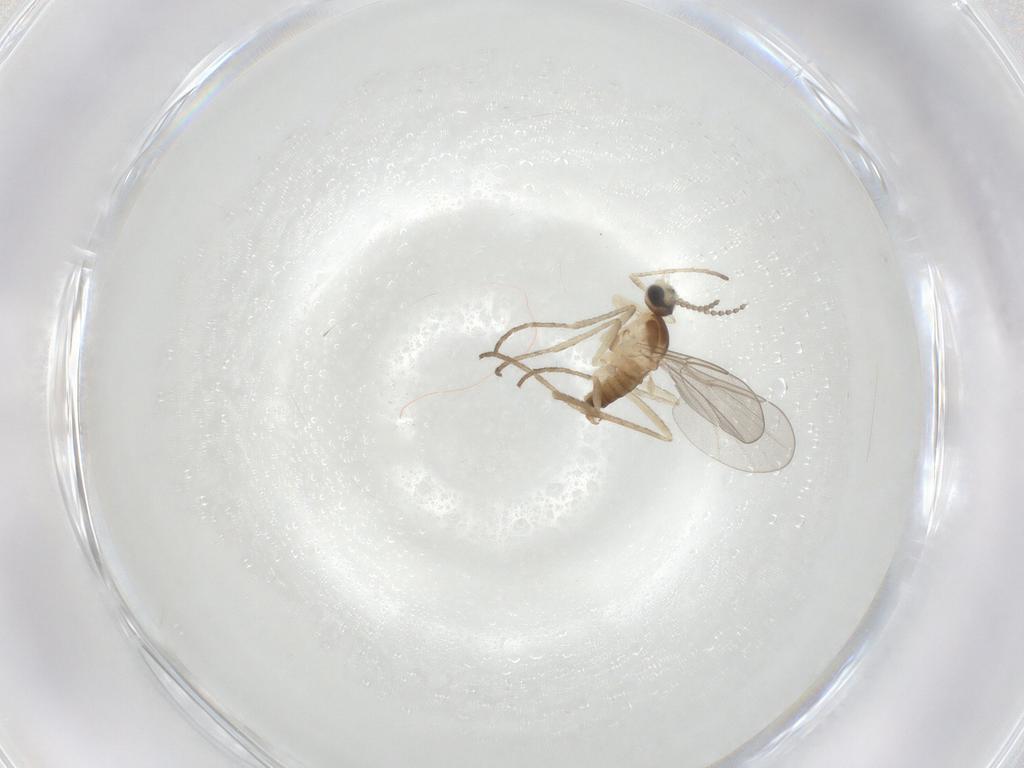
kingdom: Animalia
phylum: Arthropoda
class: Insecta
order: Diptera
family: Cecidomyiidae
